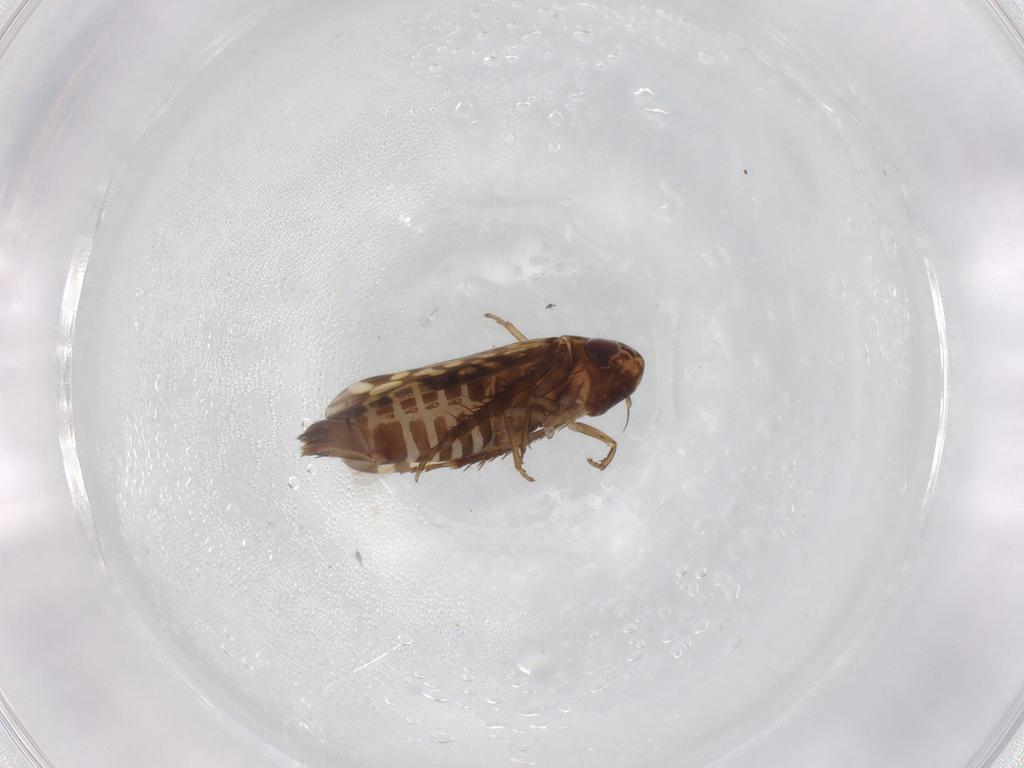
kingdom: Animalia
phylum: Arthropoda
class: Insecta
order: Hemiptera
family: Cicadellidae
